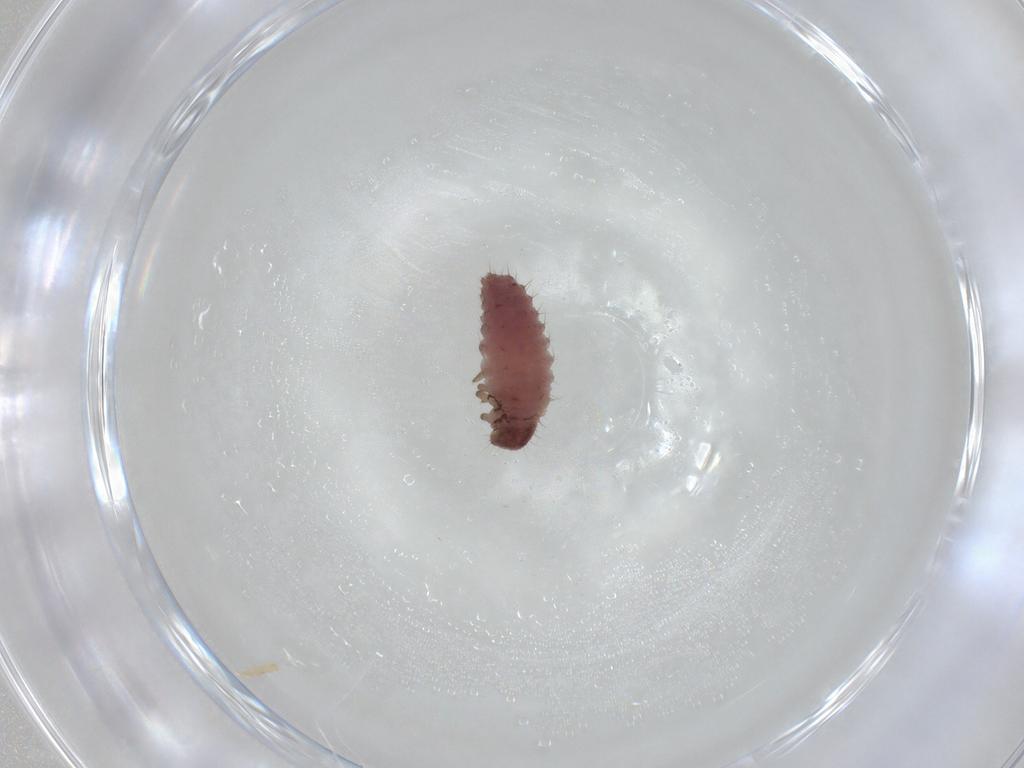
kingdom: Animalia
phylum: Arthropoda
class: Insecta
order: Coleoptera
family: Coccinellidae
